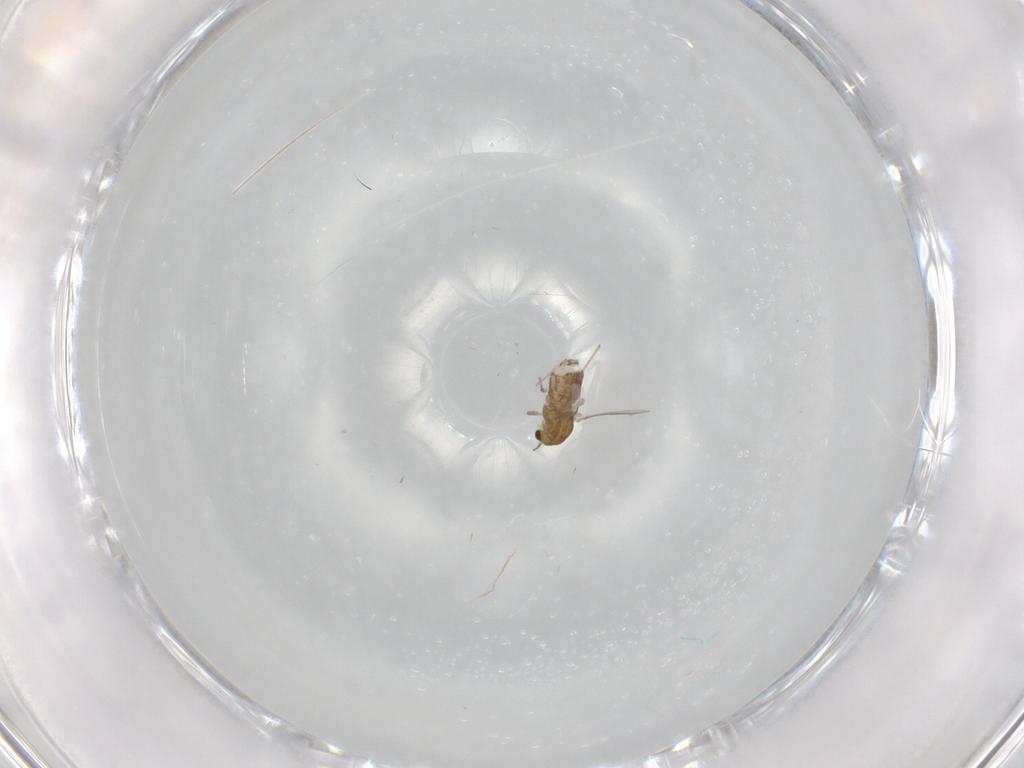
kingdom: Animalia
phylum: Arthropoda
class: Insecta
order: Diptera
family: Chironomidae
